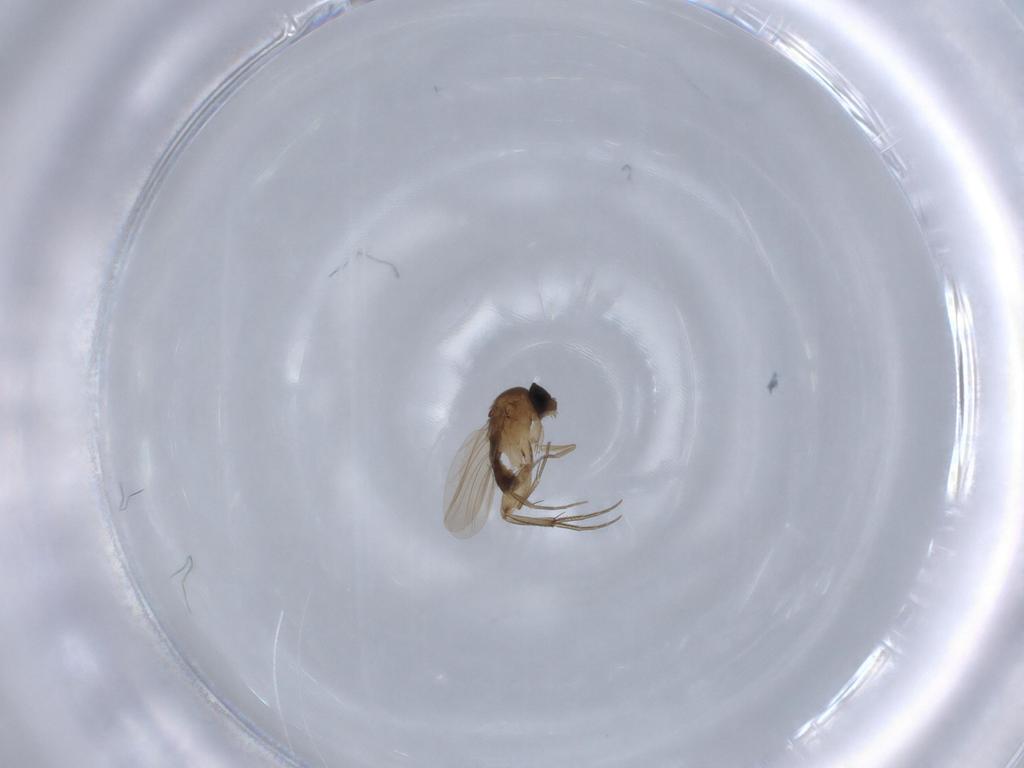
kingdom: Animalia
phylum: Arthropoda
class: Insecta
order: Diptera
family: Phoridae
